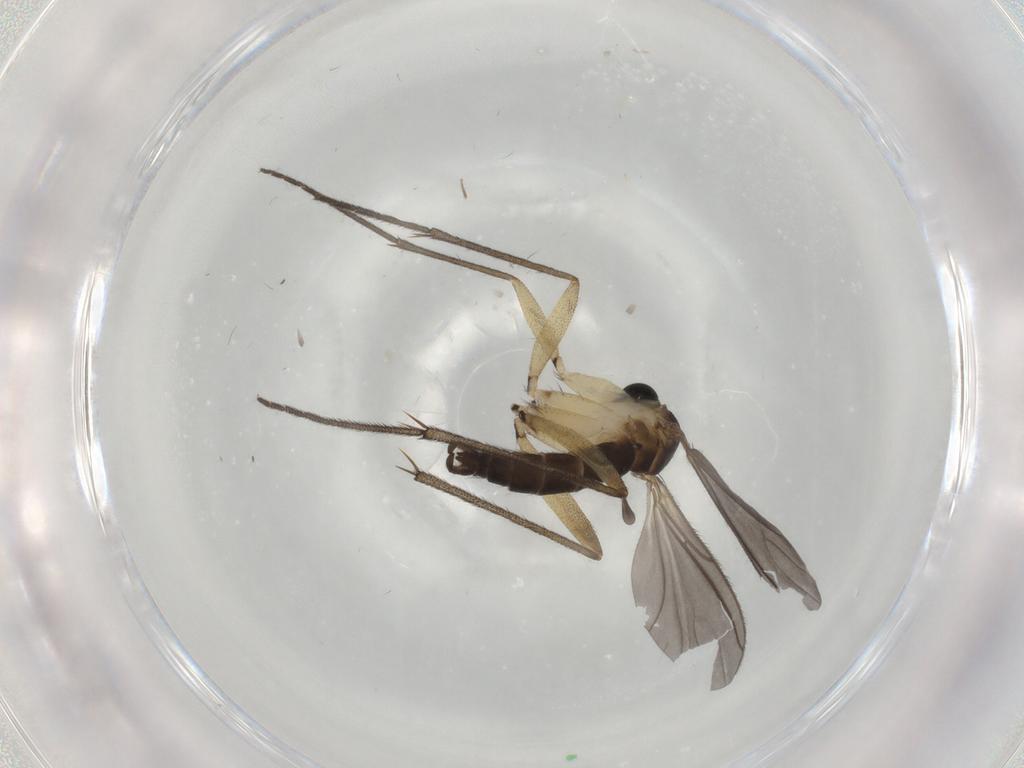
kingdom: Animalia
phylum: Arthropoda
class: Insecta
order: Diptera
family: Sciaridae
